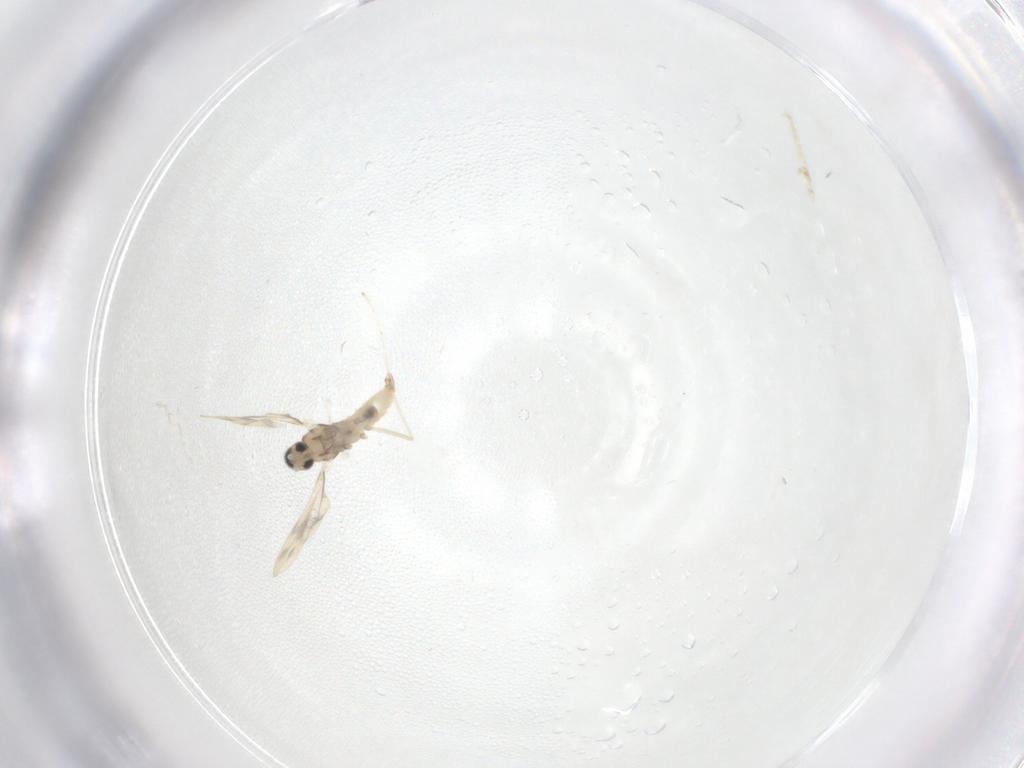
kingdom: Animalia
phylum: Arthropoda
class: Insecta
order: Diptera
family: Cecidomyiidae
